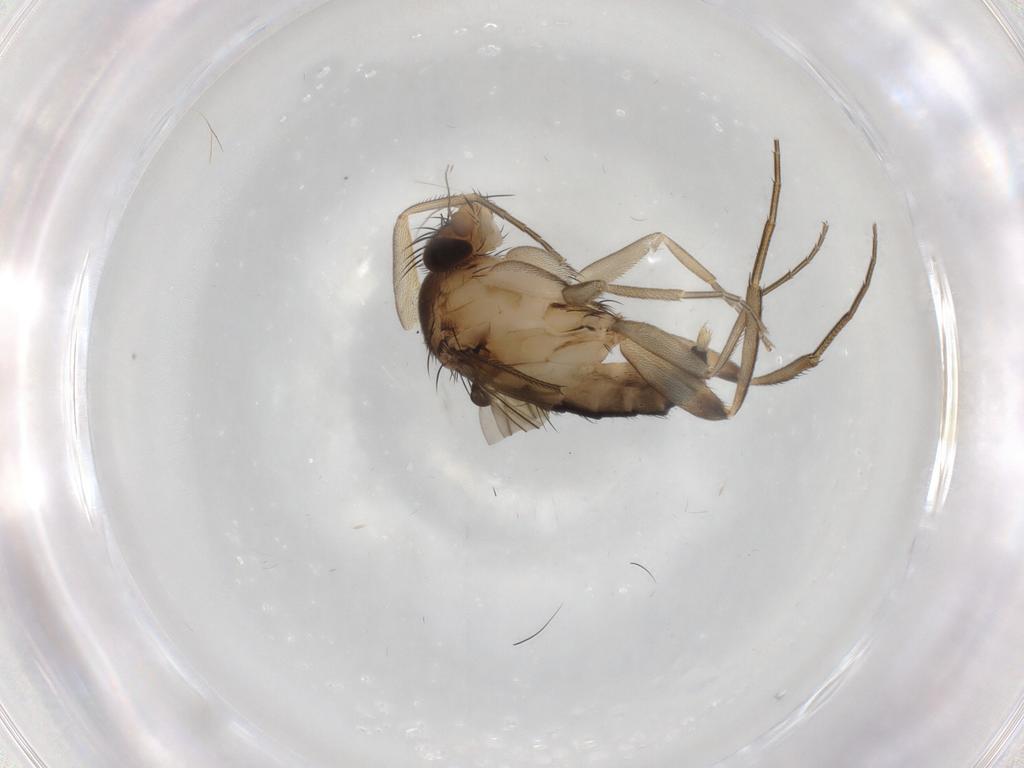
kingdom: Animalia
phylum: Arthropoda
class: Insecta
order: Diptera
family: Phoridae
